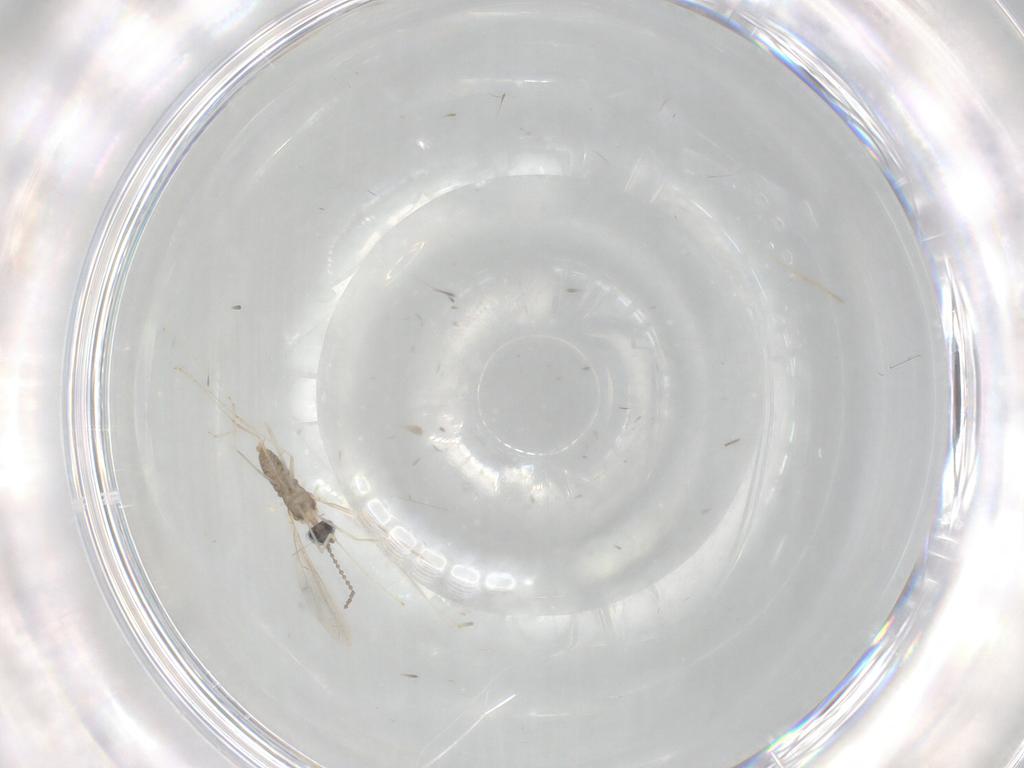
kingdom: Animalia
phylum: Arthropoda
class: Insecta
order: Diptera
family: Cecidomyiidae
